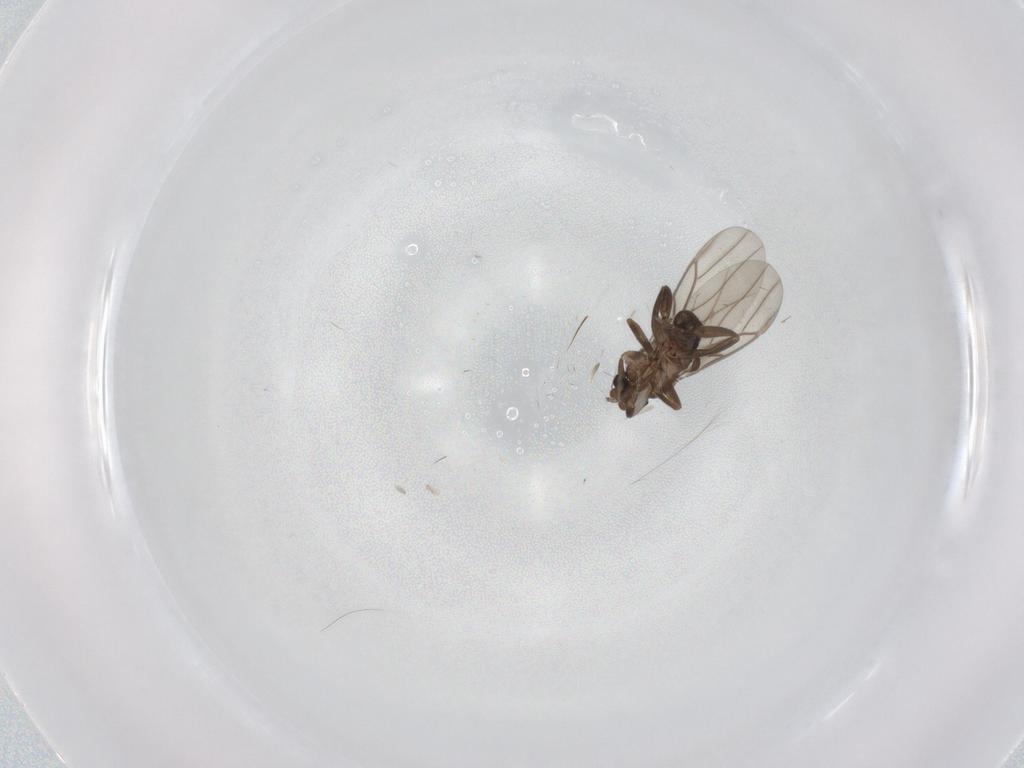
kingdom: Animalia
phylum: Arthropoda
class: Insecta
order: Diptera
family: Phoridae
